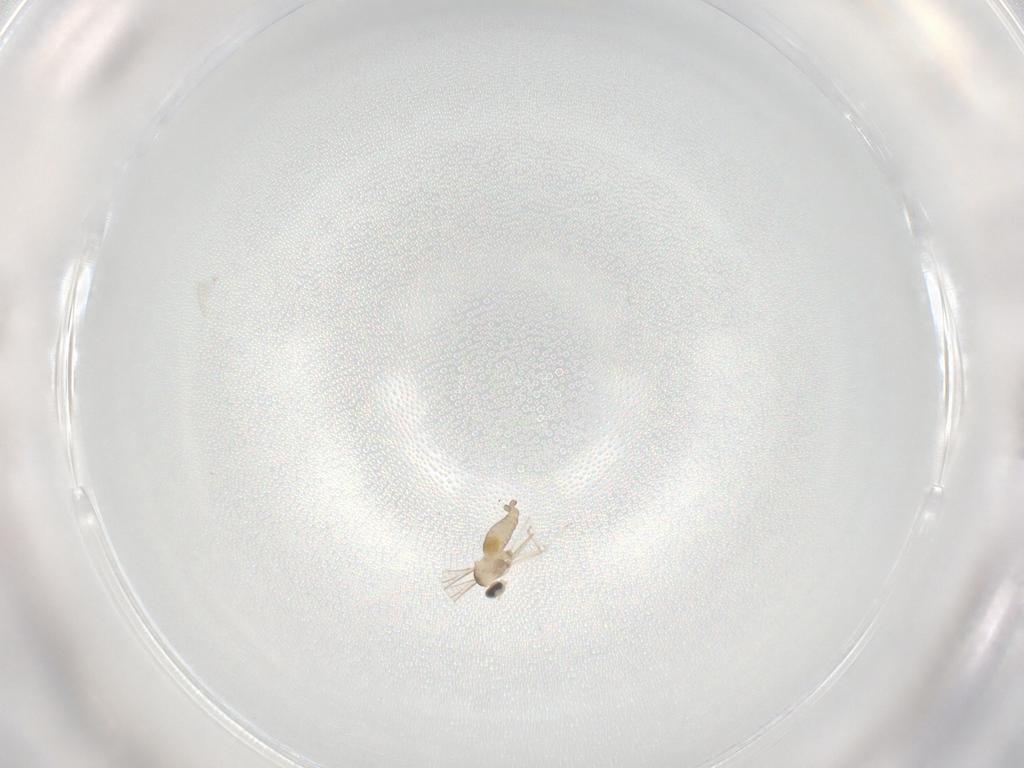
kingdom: Animalia
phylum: Arthropoda
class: Insecta
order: Diptera
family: Cecidomyiidae
